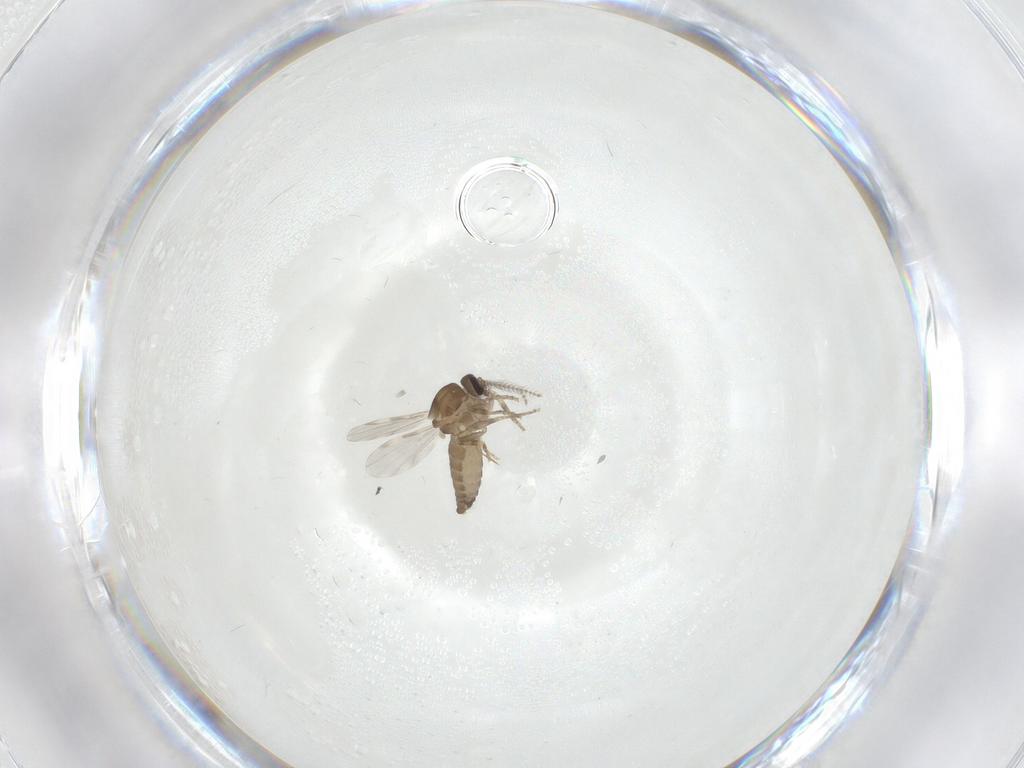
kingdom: Animalia
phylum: Arthropoda
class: Insecta
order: Diptera
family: Ceratopogonidae
